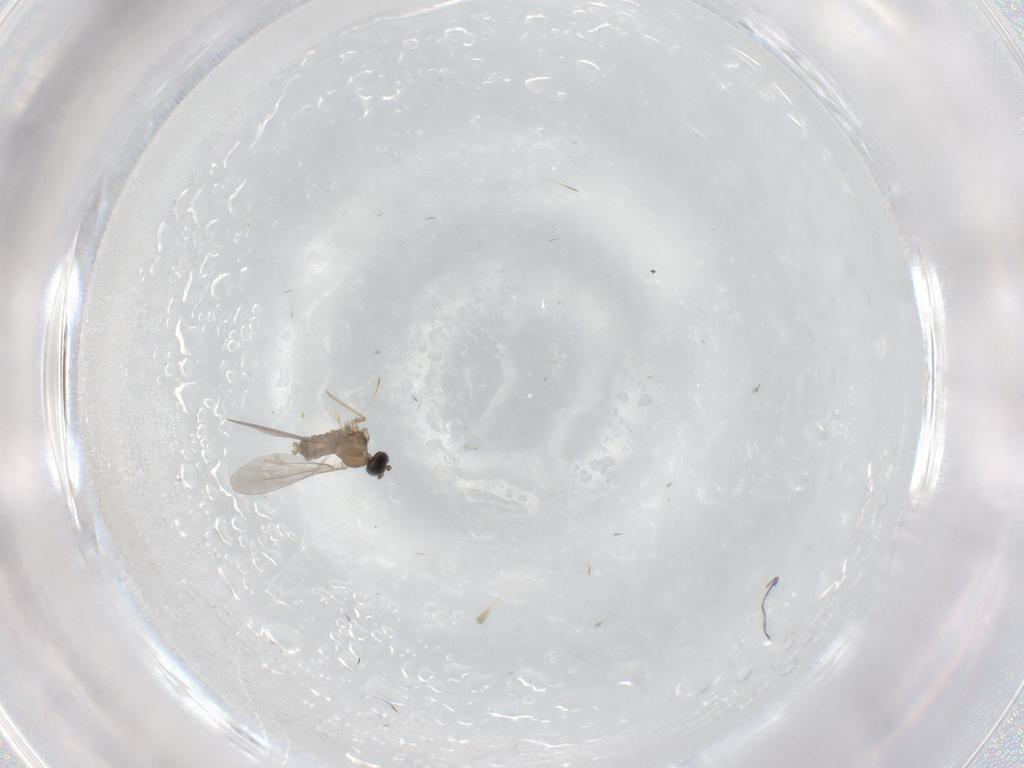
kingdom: Animalia
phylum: Arthropoda
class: Insecta
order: Diptera
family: Cecidomyiidae
